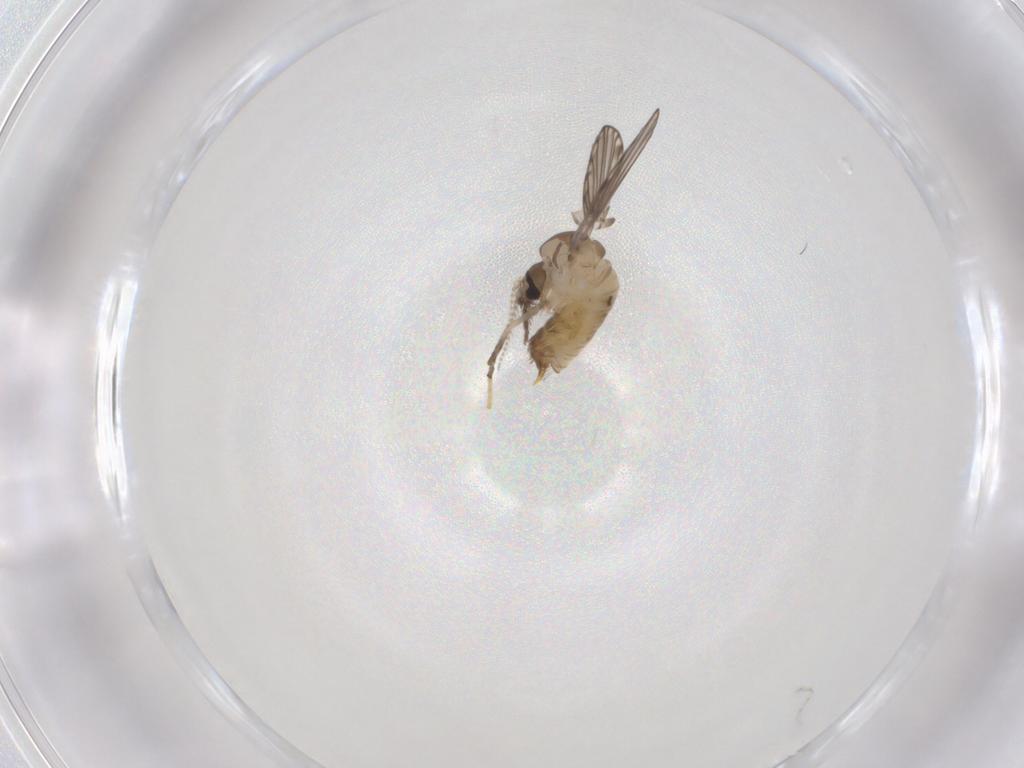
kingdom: Animalia
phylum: Arthropoda
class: Insecta
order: Diptera
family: Psychodidae
